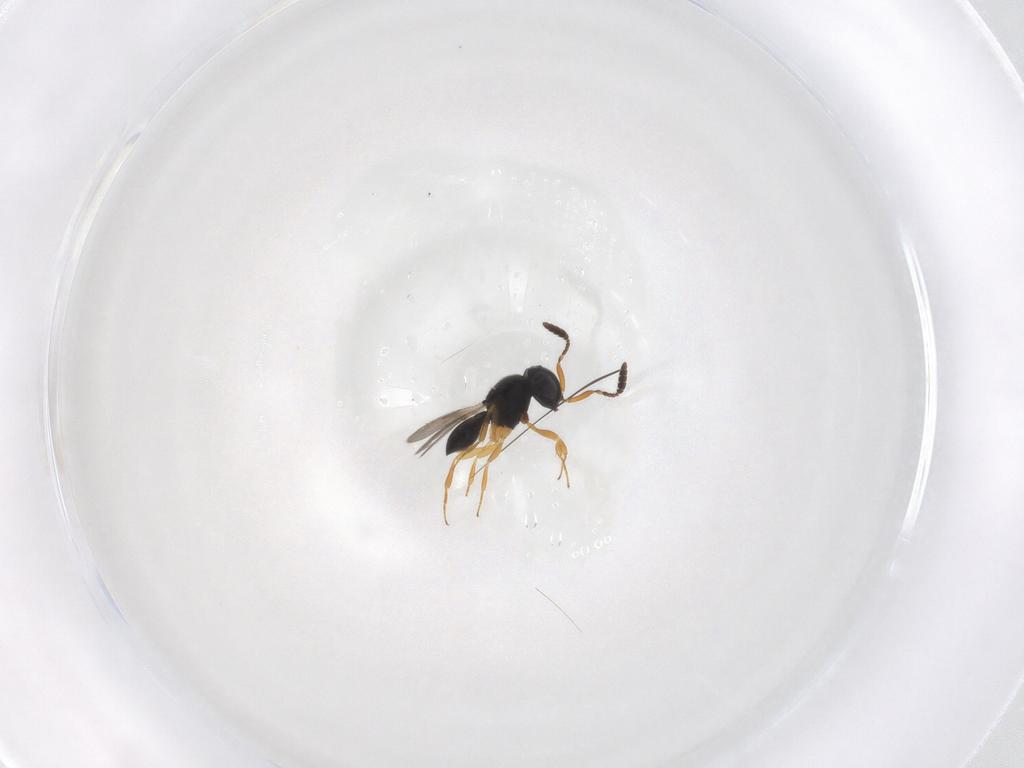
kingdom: Animalia
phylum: Arthropoda
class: Insecta
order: Hymenoptera
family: Scelionidae
